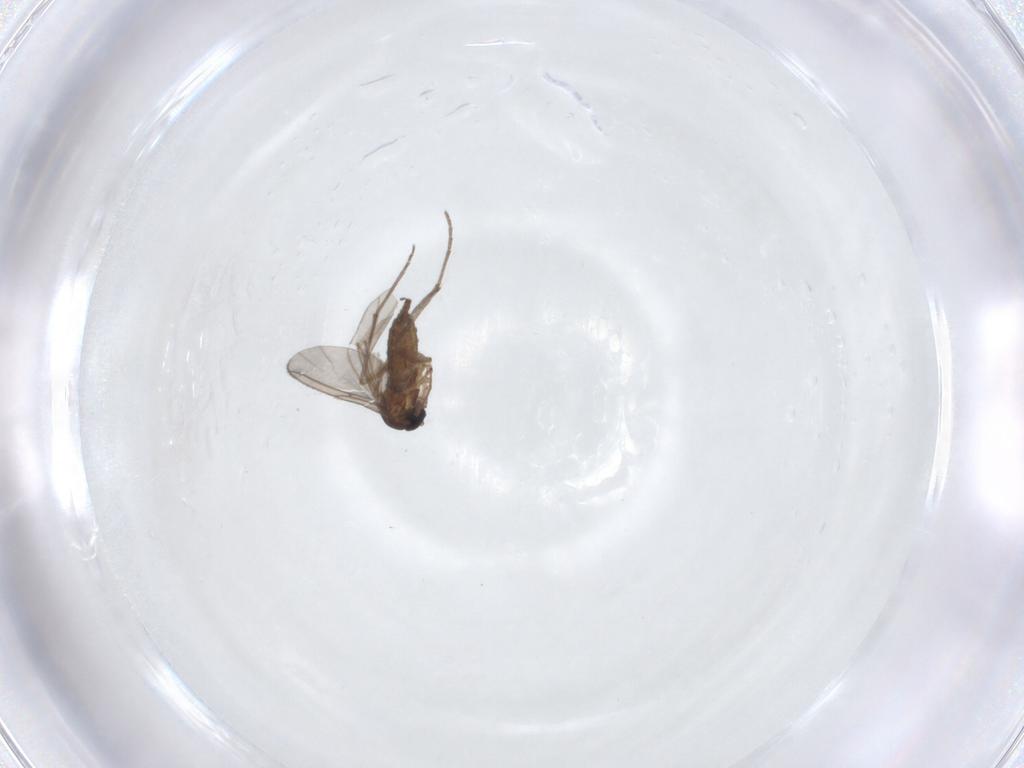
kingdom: Animalia
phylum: Arthropoda
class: Insecta
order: Diptera
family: Sciaridae
